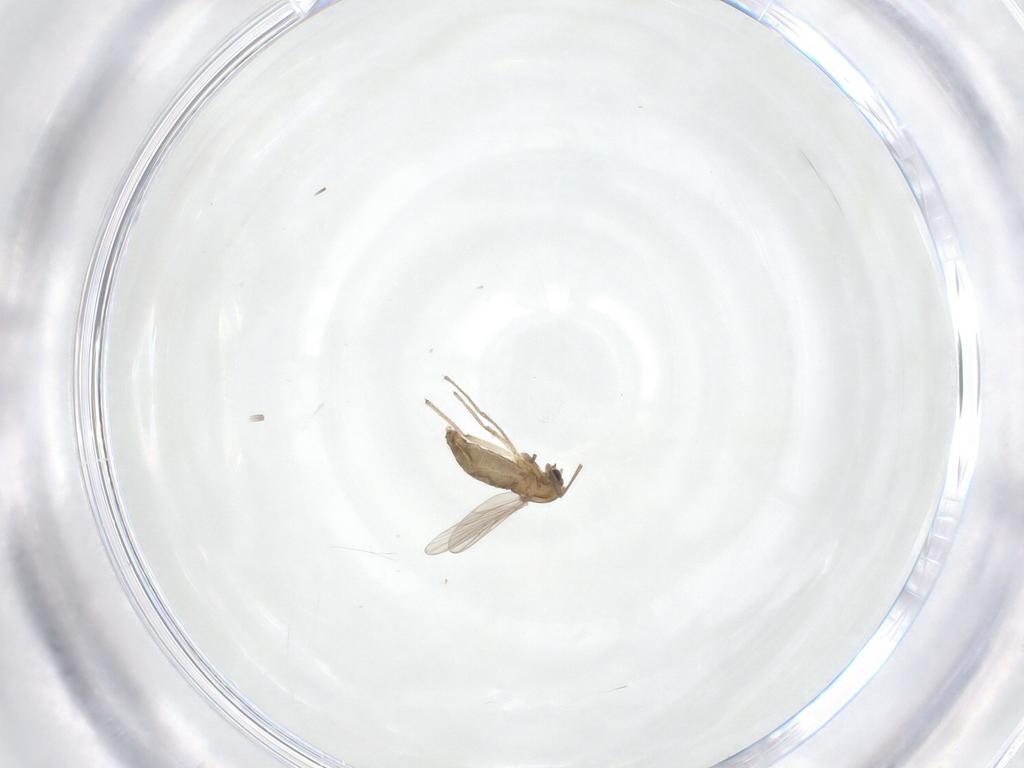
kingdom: Animalia
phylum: Arthropoda
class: Insecta
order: Diptera
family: Chironomidae
